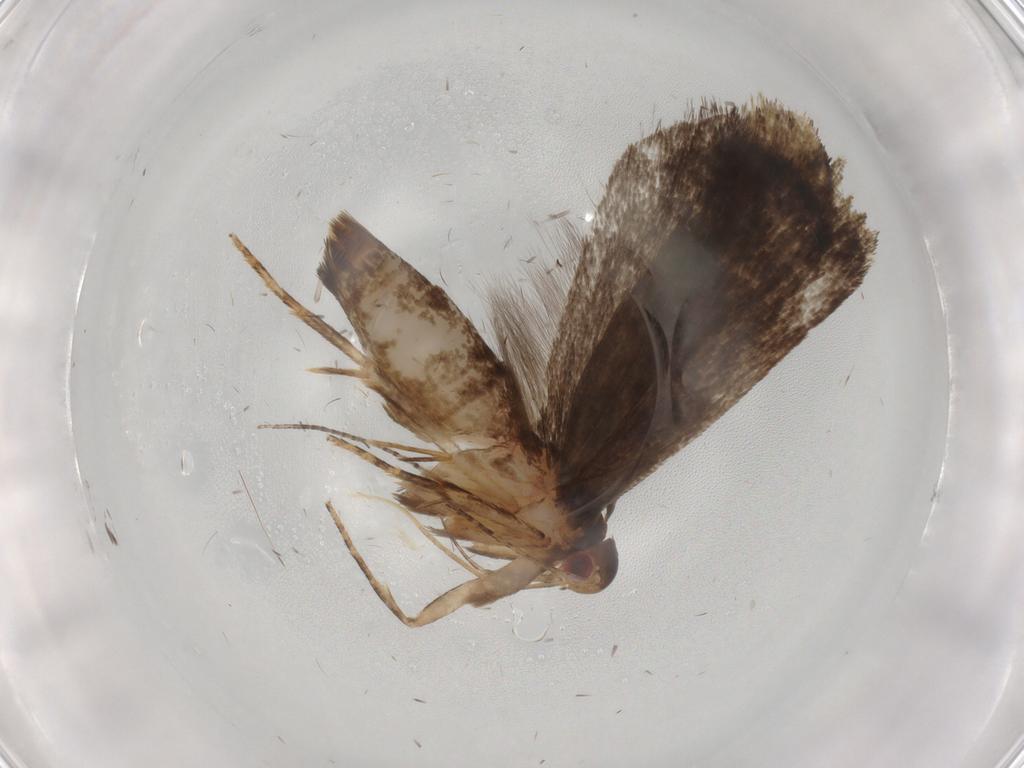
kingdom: Animalia
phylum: Arthropoda
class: Insecta
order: Lepidoptera
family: Gelechiidae
